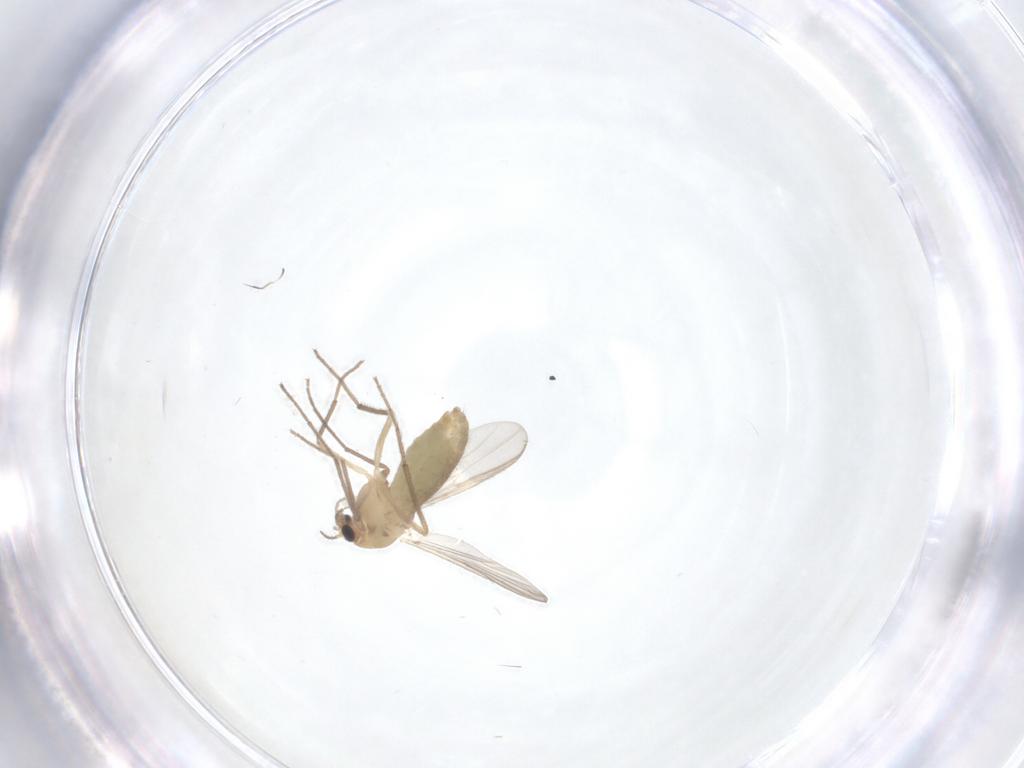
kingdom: Animalia
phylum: Arthropoda
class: Insecta
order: Diptera
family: Chironomidae
